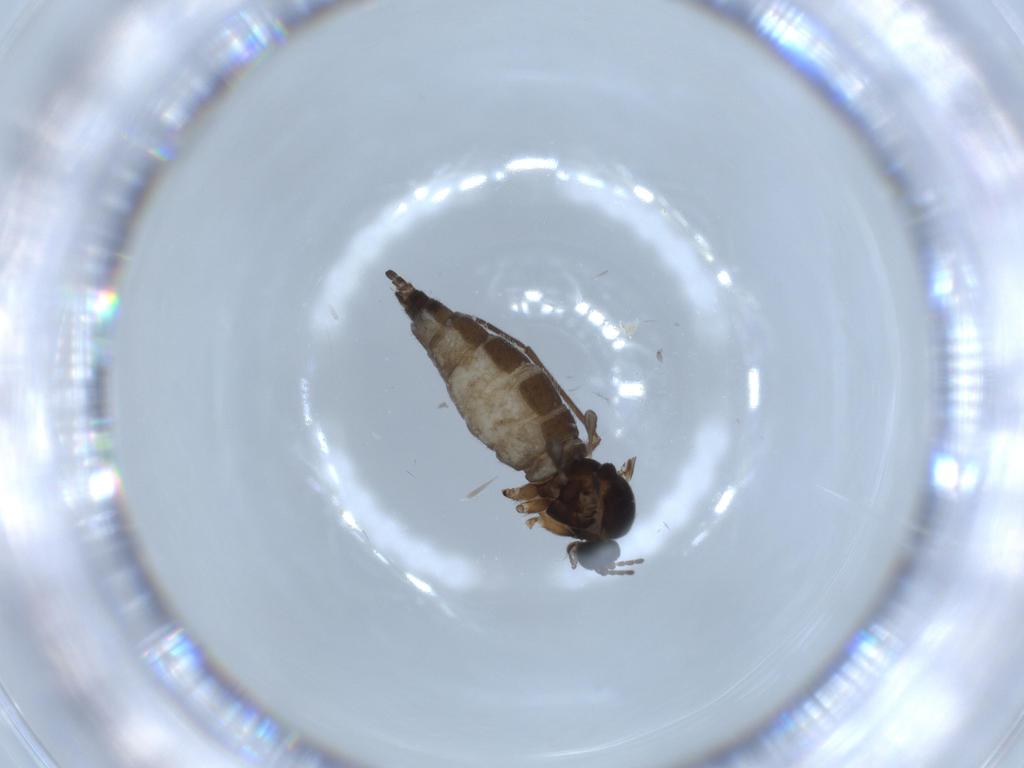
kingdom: Animalia
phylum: Arthropoda
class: Insecta
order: Diptera
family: Sciaridae
